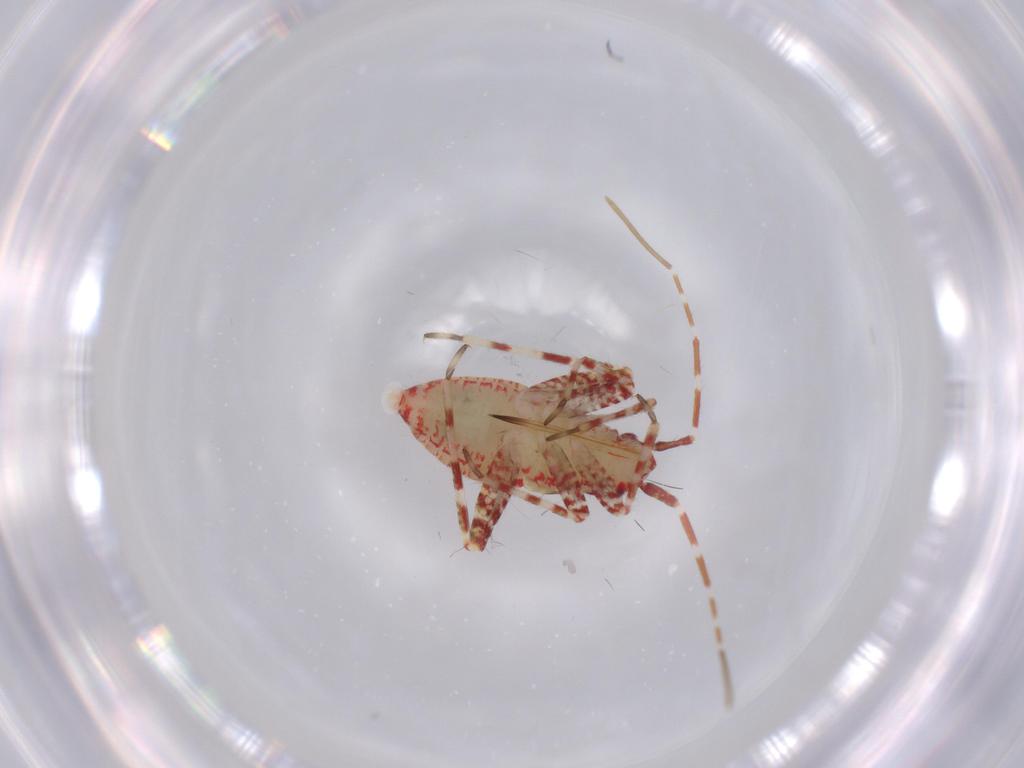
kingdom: Animalia
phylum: Arthropoda
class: Insecta
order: Hemiptera
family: Miridae
